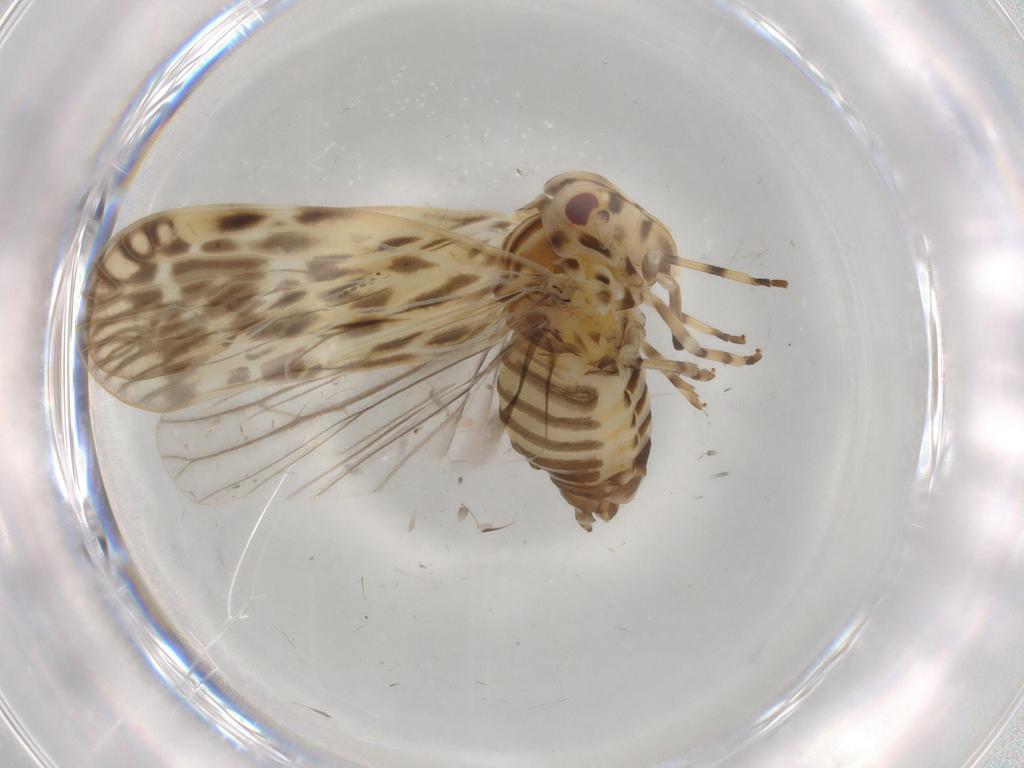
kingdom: Animalia
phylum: Arthropoda
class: Insecta
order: Hemiptera
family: Derbidae
